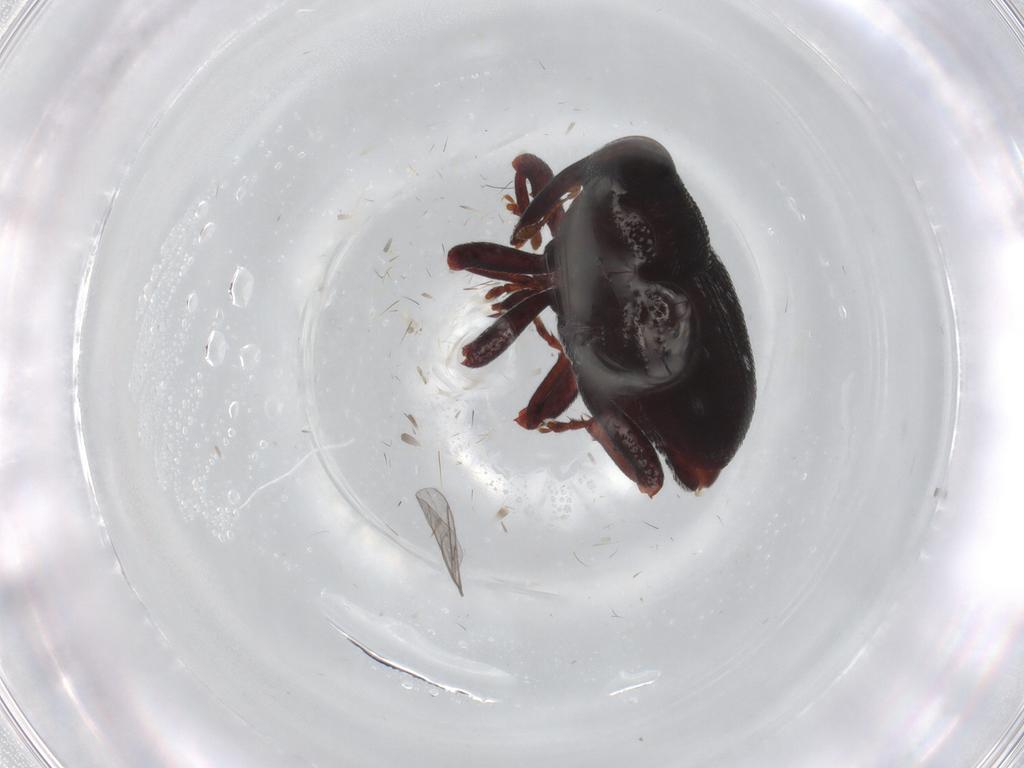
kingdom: Animalia
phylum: Arthropoda
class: Insecta
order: Coleoptera
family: Curculionidae
